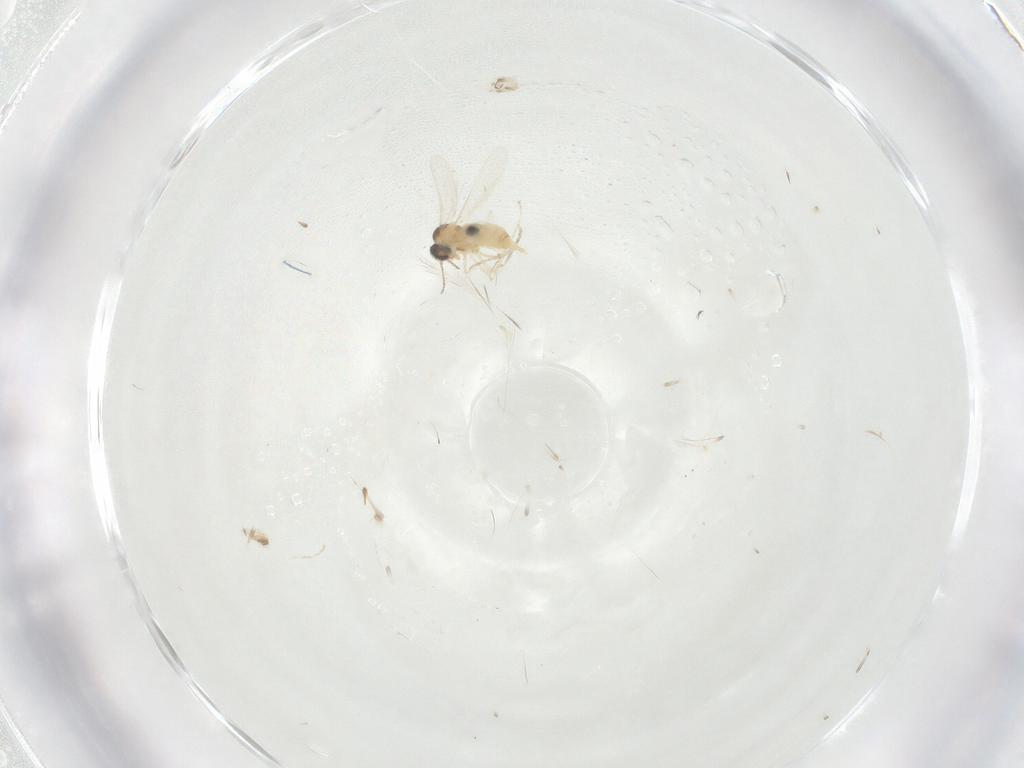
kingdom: Animalia
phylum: Arthropoda
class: Insecta
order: Diptera
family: Cecidomyiidae
